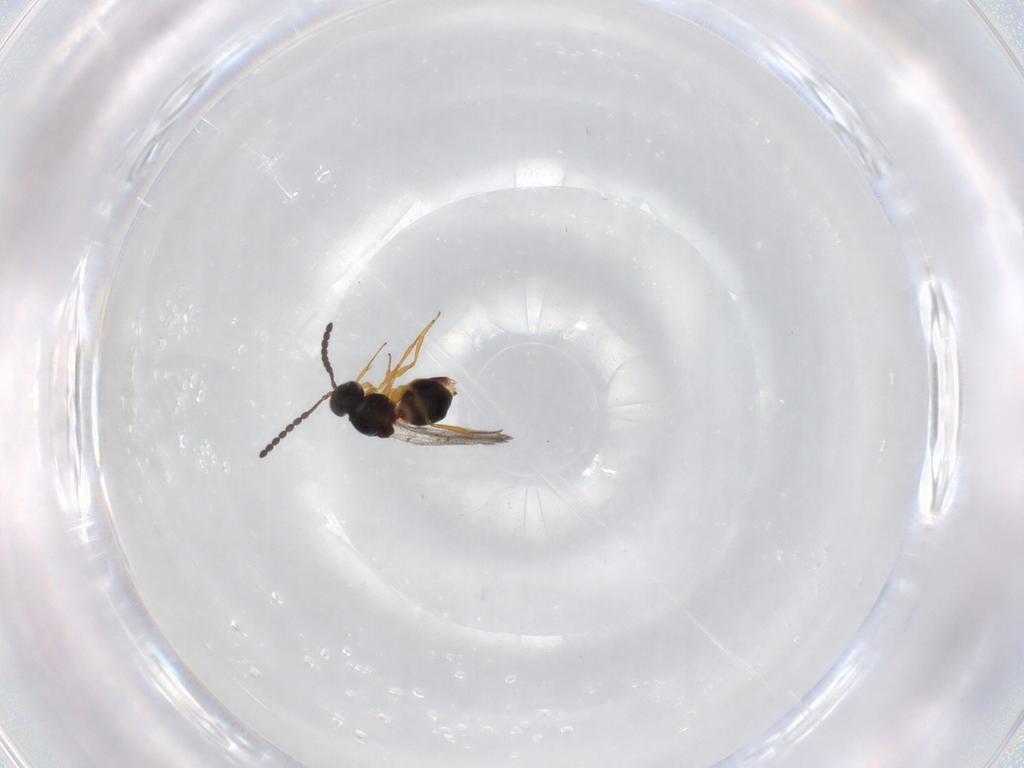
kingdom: Animalia
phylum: Arthropoda
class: Insecta
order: Hymenoptera
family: Figitidae
